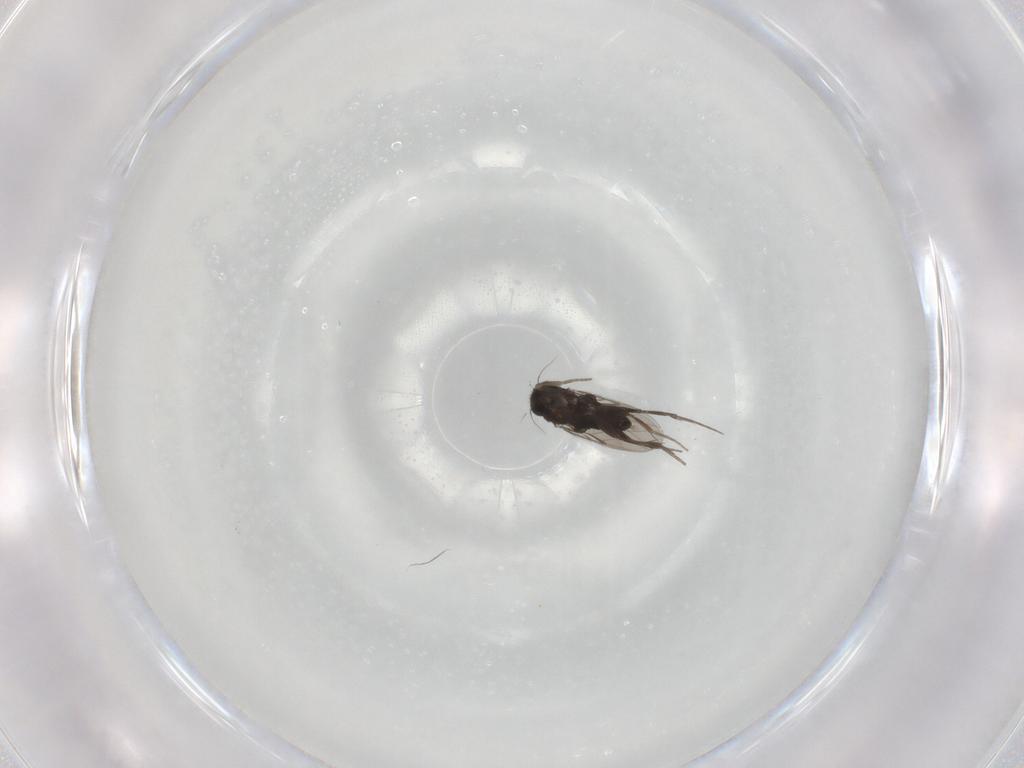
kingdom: Animalia
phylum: Arthropoda
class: Insecta
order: Diptera
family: Phoridae
